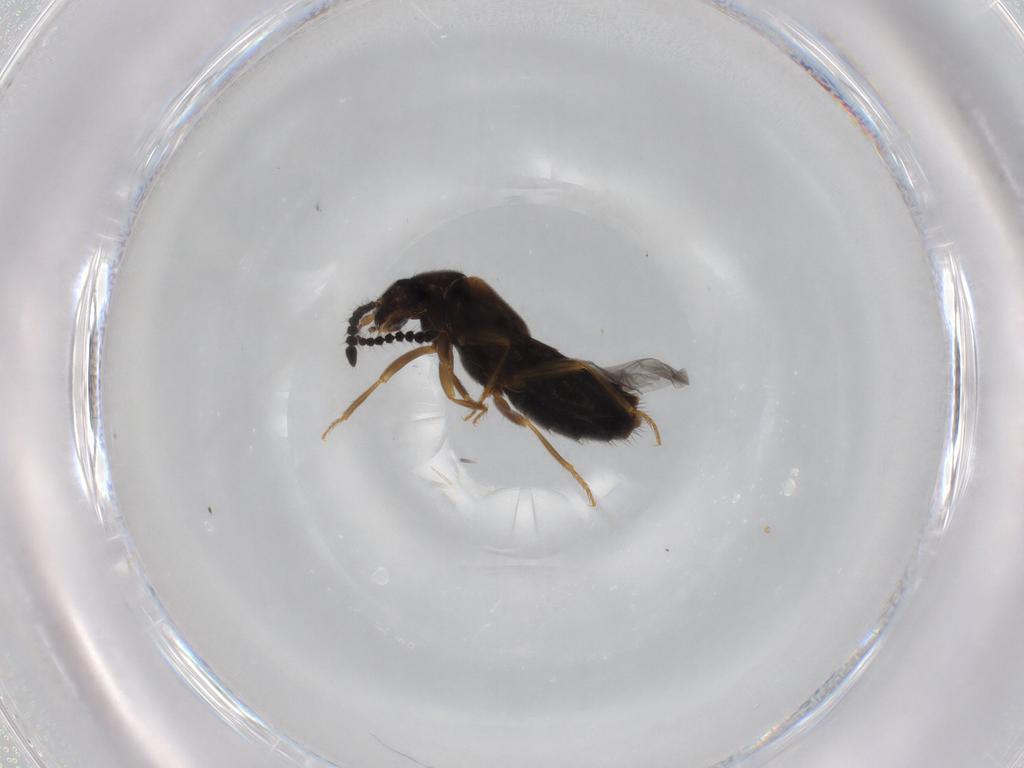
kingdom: Animalia
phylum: Arthropoda
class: Insecta
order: Coleoptera
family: Staphylinidae
